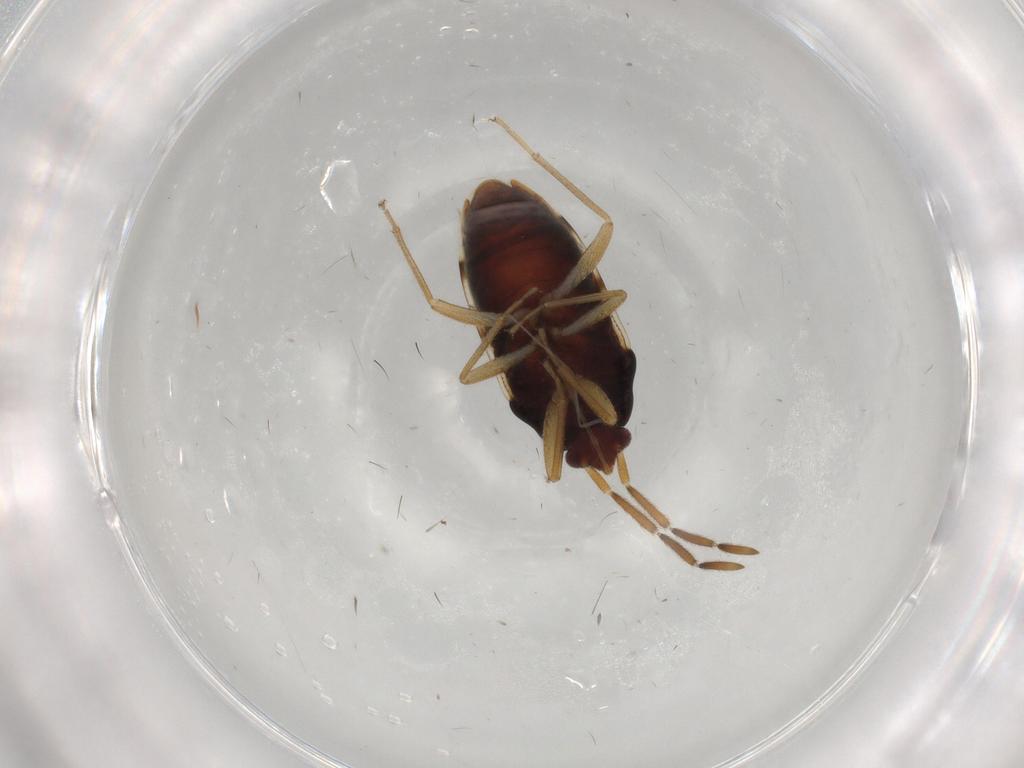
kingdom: Animalia
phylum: Arthropoda
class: Insecta
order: Hemiptera
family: Rhyparochromidae
